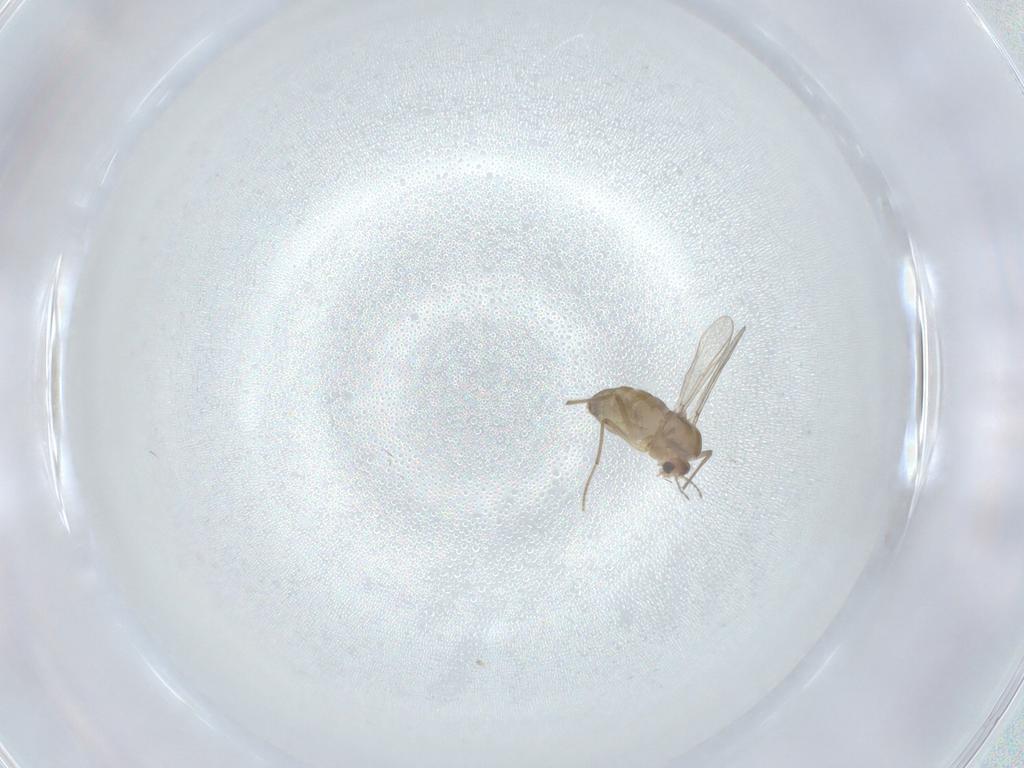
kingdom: Animalia
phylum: Arthropoda
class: Insecta
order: Diptera
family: Chironomidae
